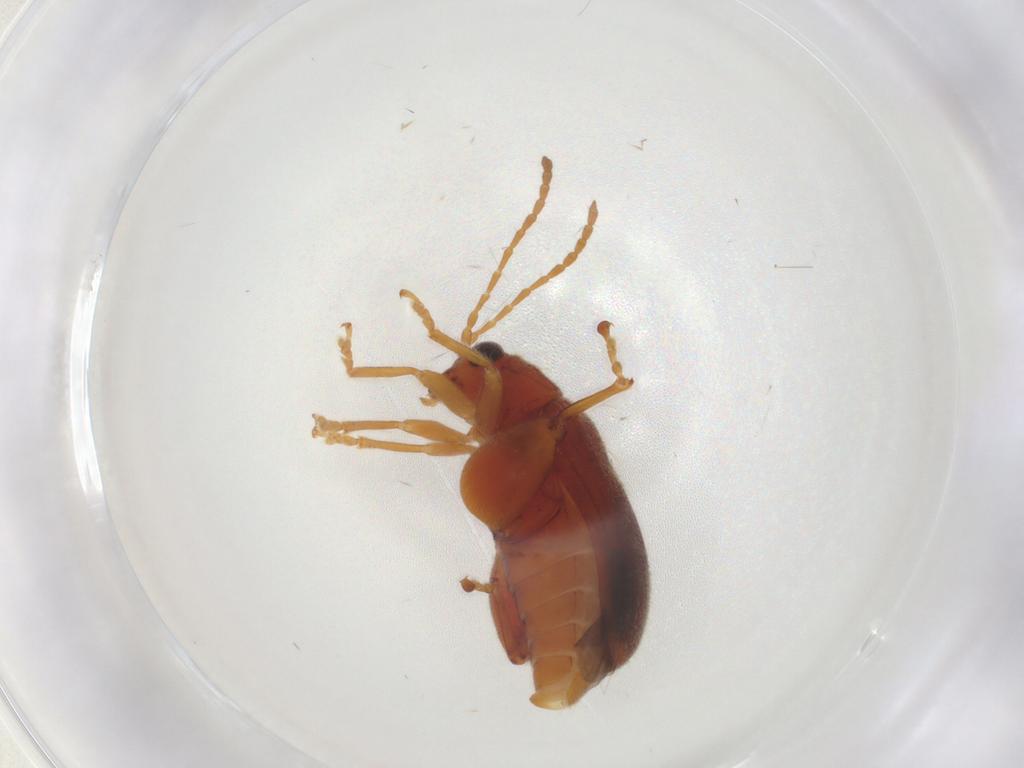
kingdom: Animalia
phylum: Arthropoda
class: Insecta
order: Coleoptera
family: Chrysomelidae
